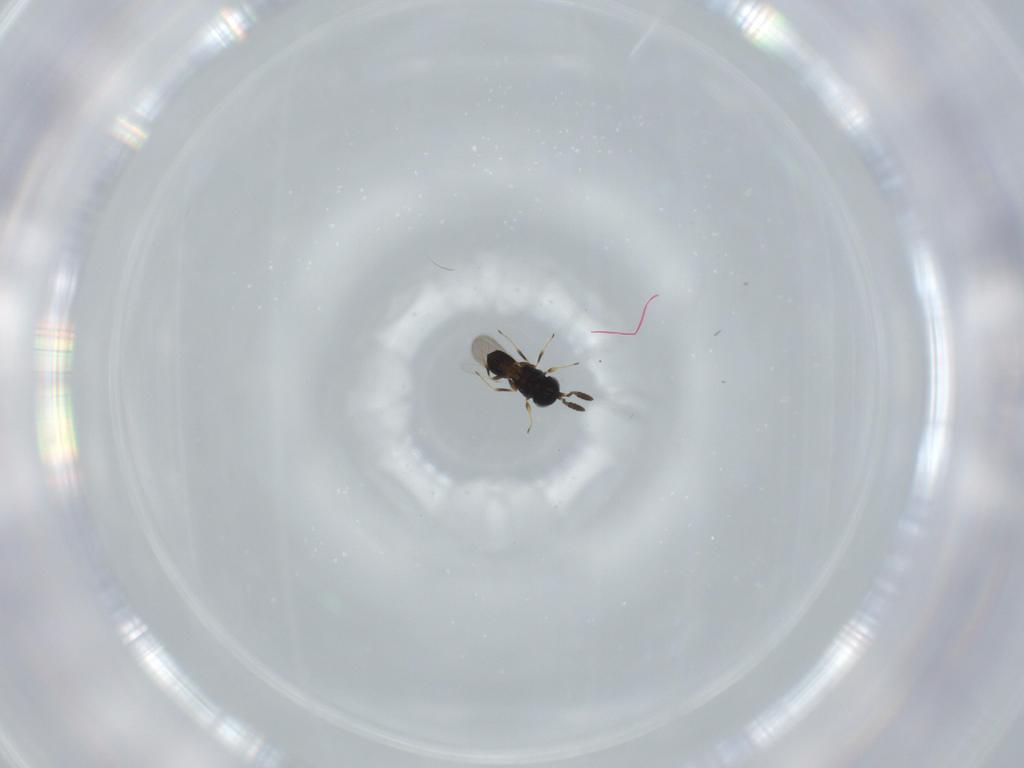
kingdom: Animalia
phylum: Arthropoda
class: Insecta
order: Hymenoptera
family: Scelionidae
